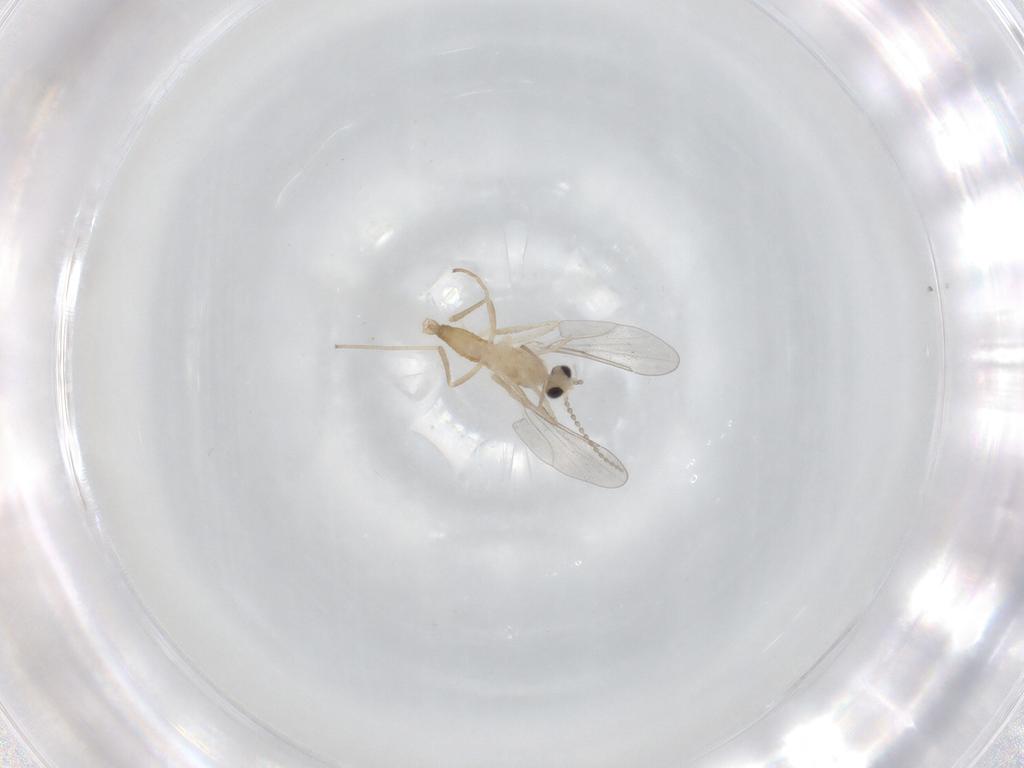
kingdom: Animalia
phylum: Arthropoda
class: Insecta
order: Diptera
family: Cecidomyiidae
